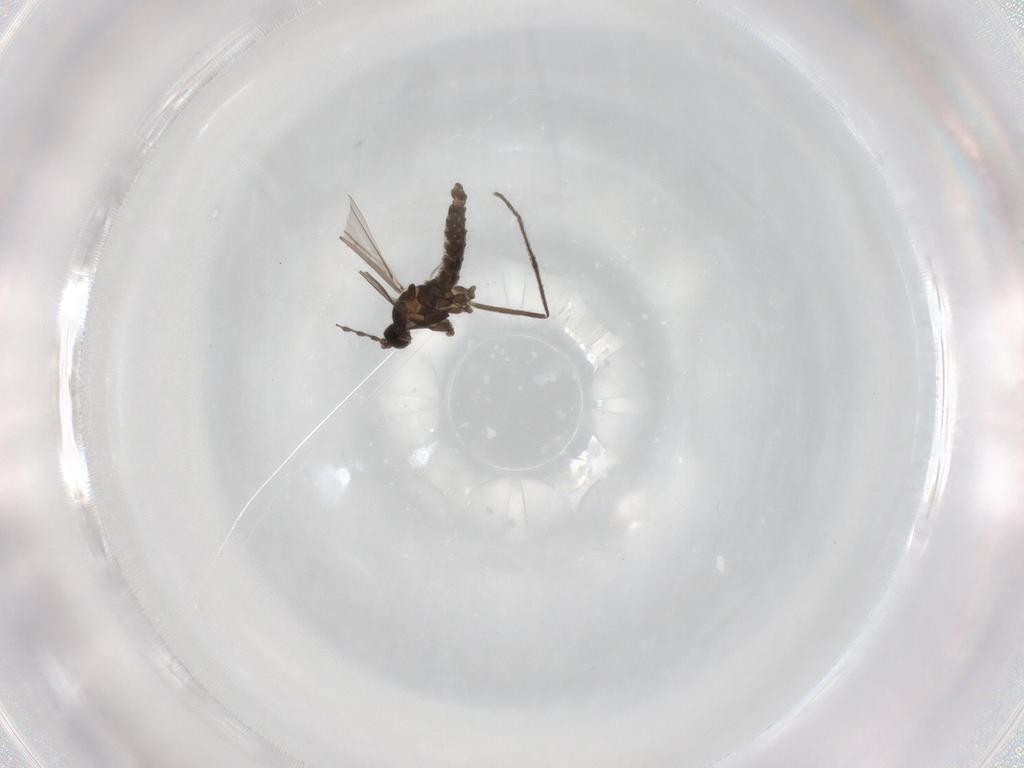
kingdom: Animalia
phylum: Arthropoda
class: Insecta
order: Diptera
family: Cecidomyiidae
